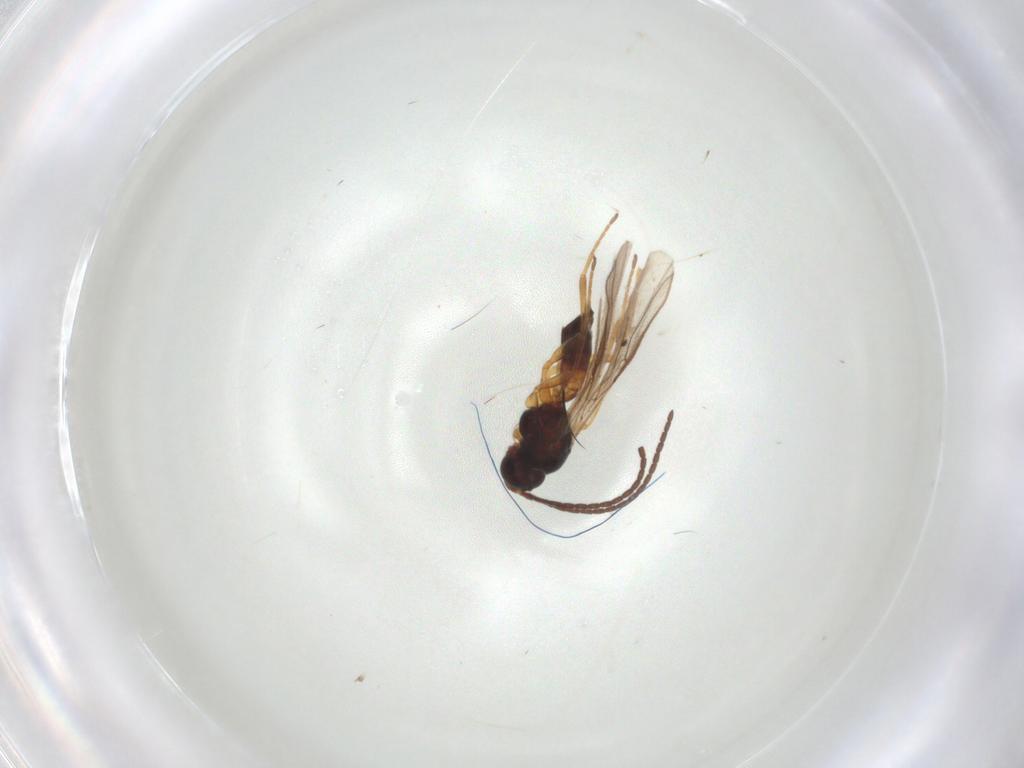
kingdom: Animalia
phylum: Arthropoda
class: Insecta
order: Hymenoptera
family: Braconidae
